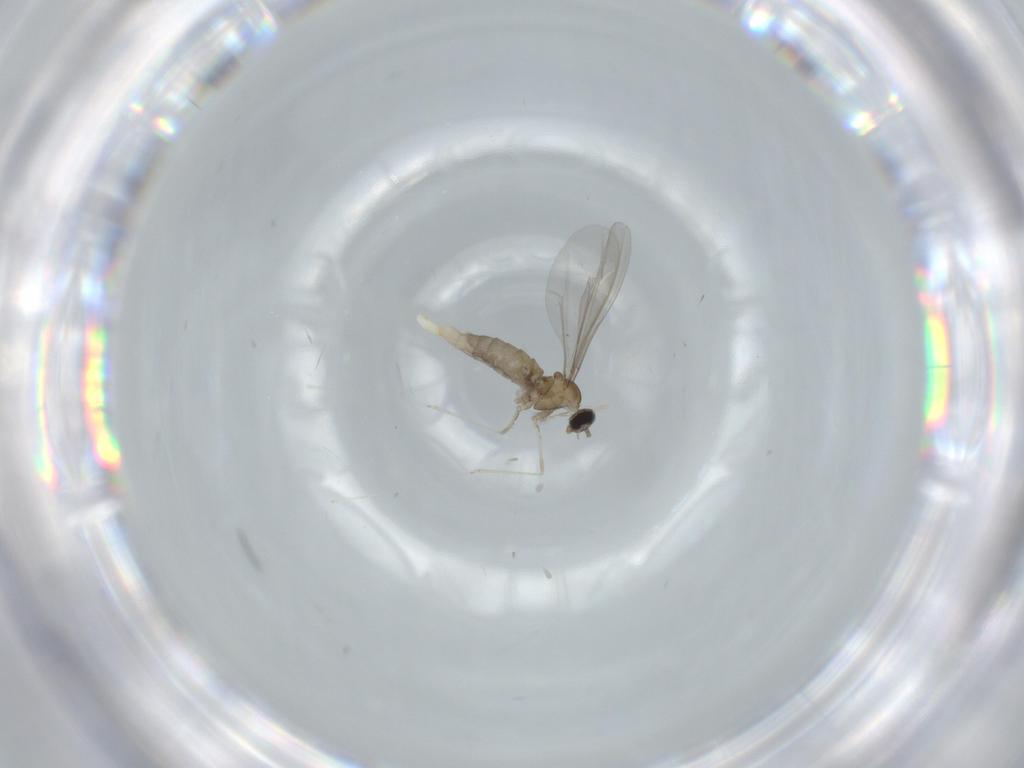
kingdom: Animalia
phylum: Arthropoda
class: Insecta
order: Diptera
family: Cecidomyiidae
